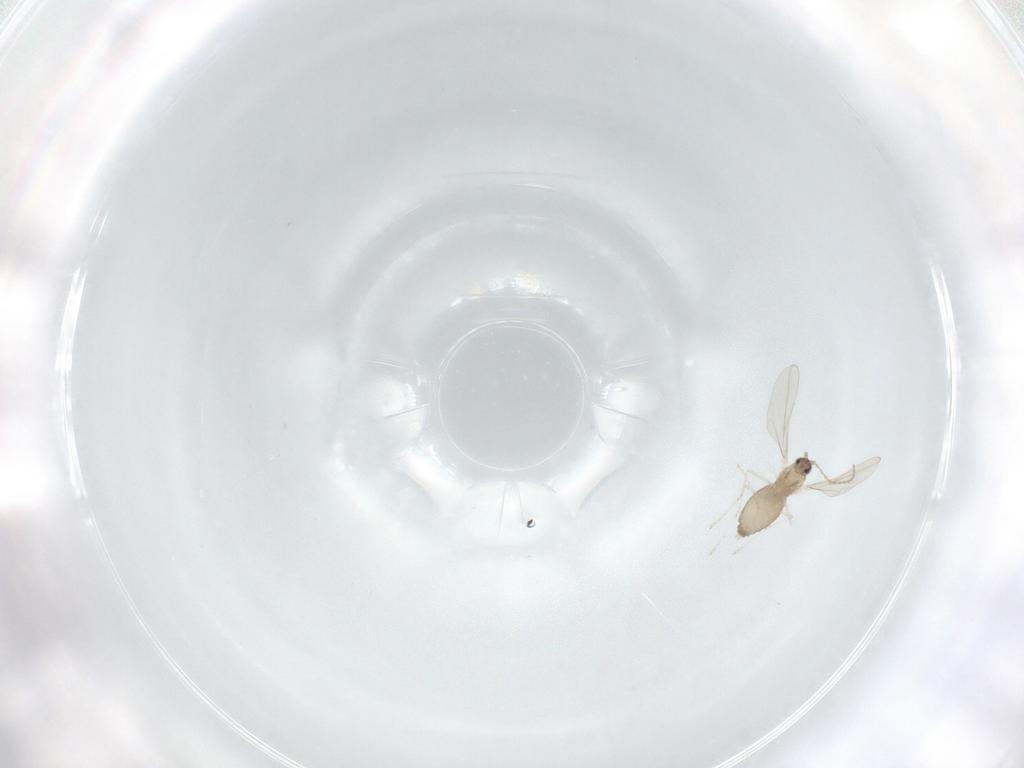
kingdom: Animalia
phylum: Arthropoda
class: Insecta
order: Diptera
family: Cecidomyiidae
